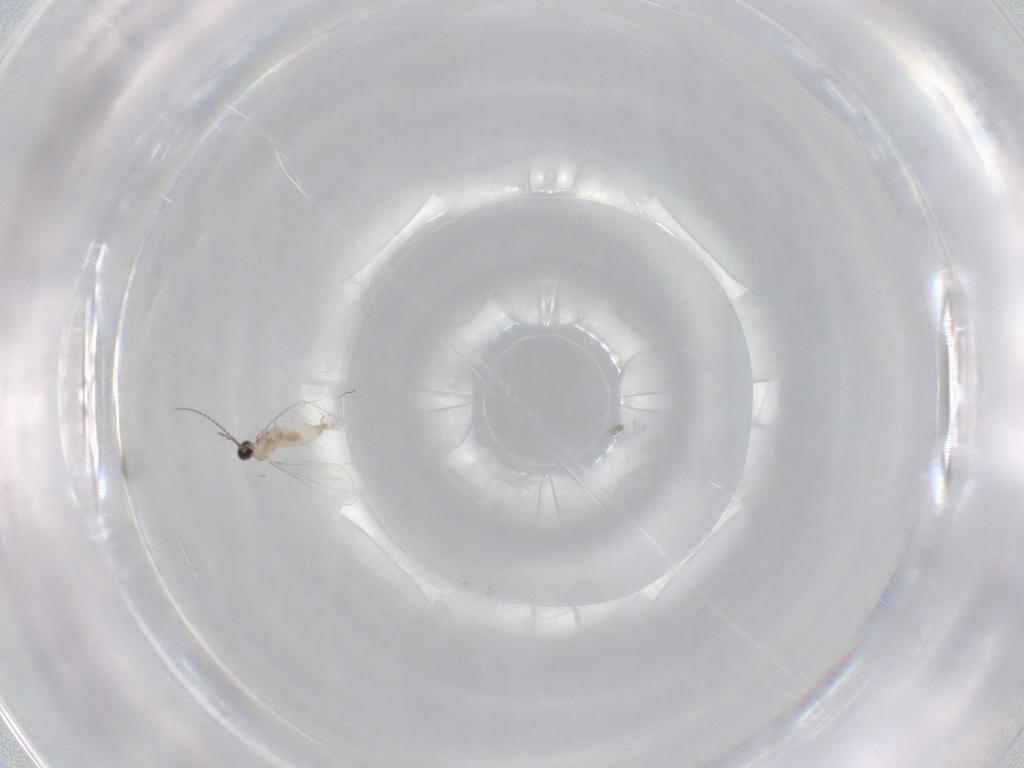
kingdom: Animalia
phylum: Arthropoda
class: Insecta
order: Diptera
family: Cecidomyiidae
